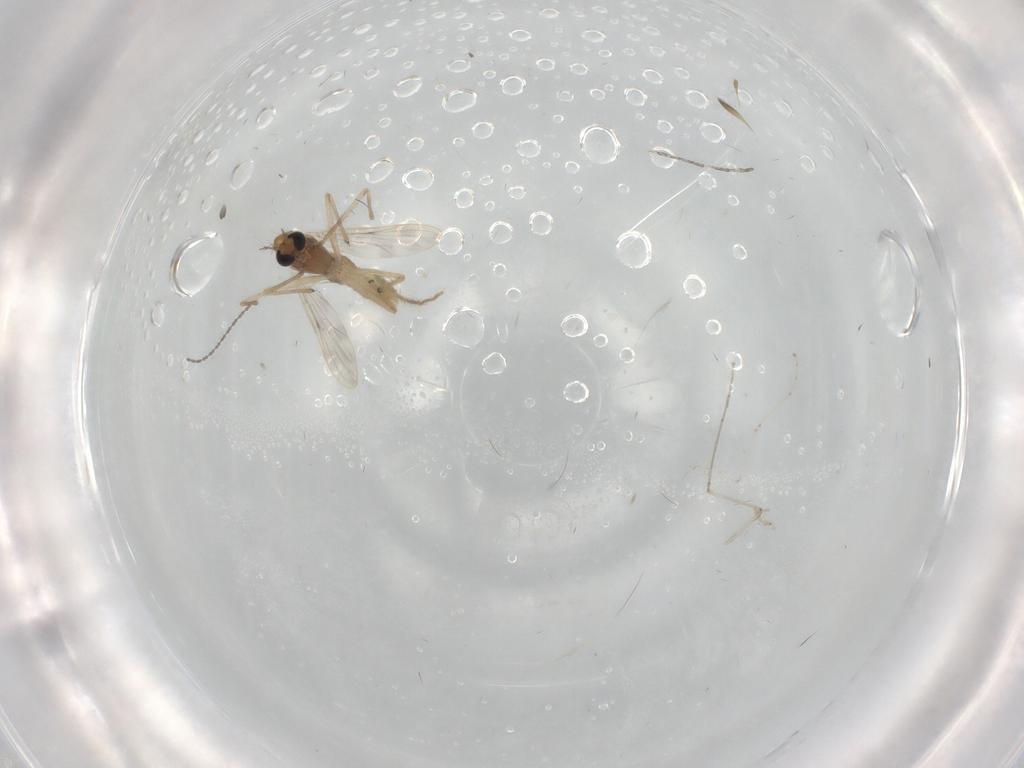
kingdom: Animalia
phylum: Arthropoda
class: Insecta
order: Diptera
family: Chironomidae
